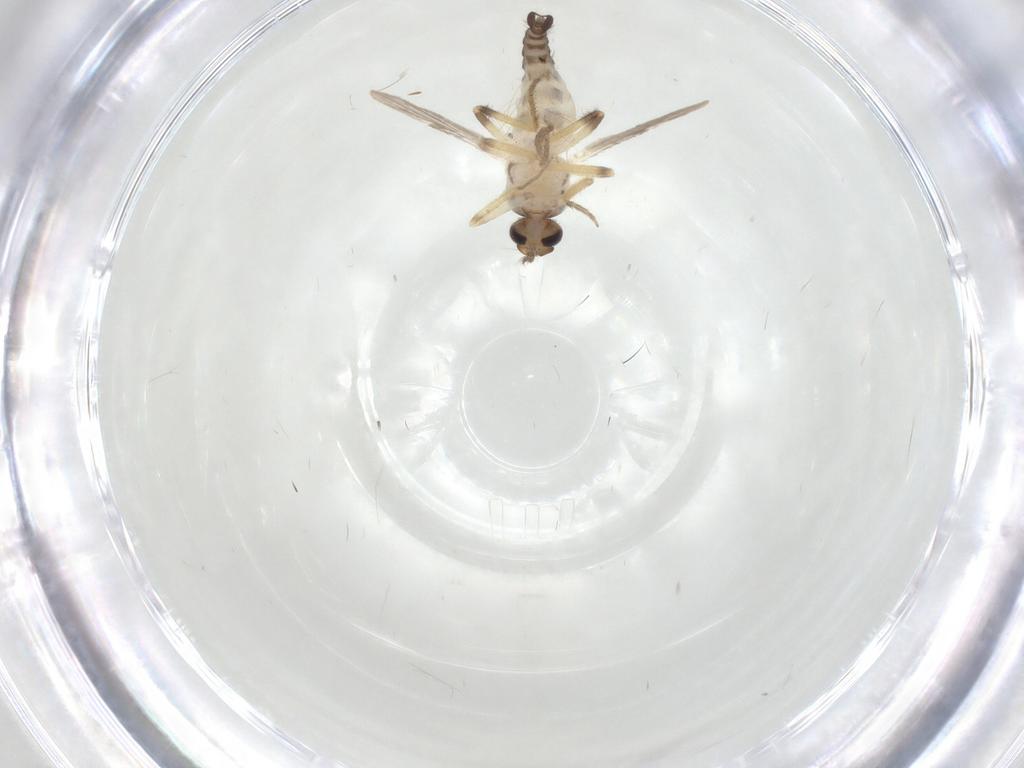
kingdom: Animalia
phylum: Arthropoda
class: Insecta
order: Diptera
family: Ceratopogonidae
